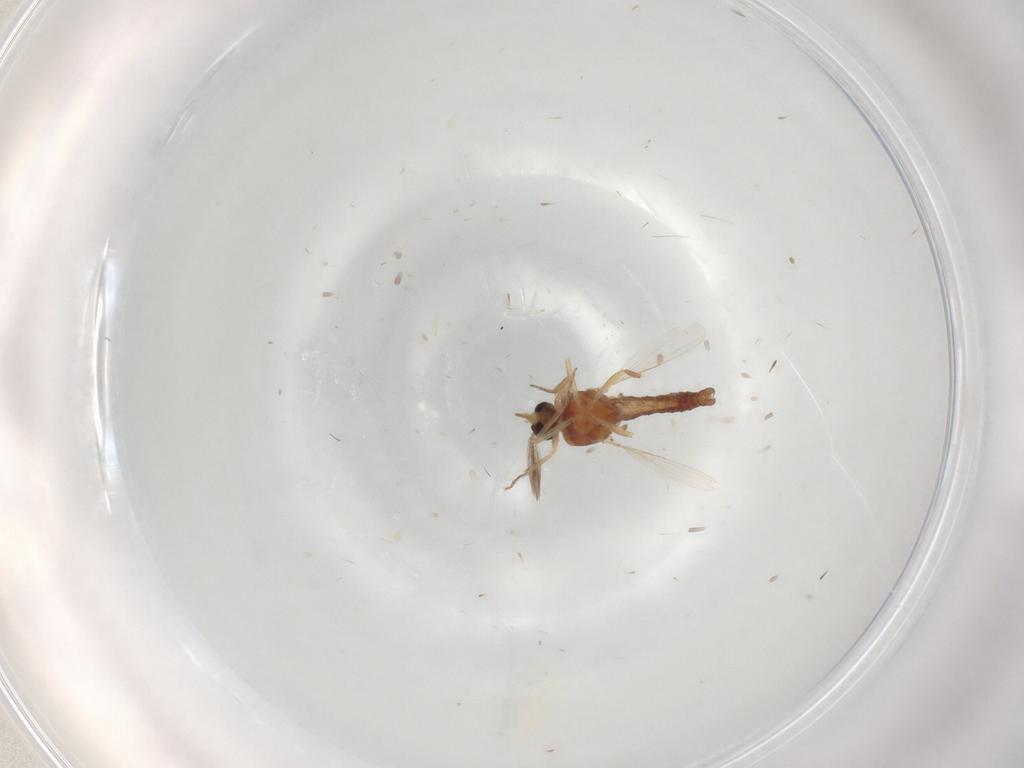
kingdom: Animalia
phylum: Arthropoda
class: Insecta
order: Diptera
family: Ceratopogonidae
